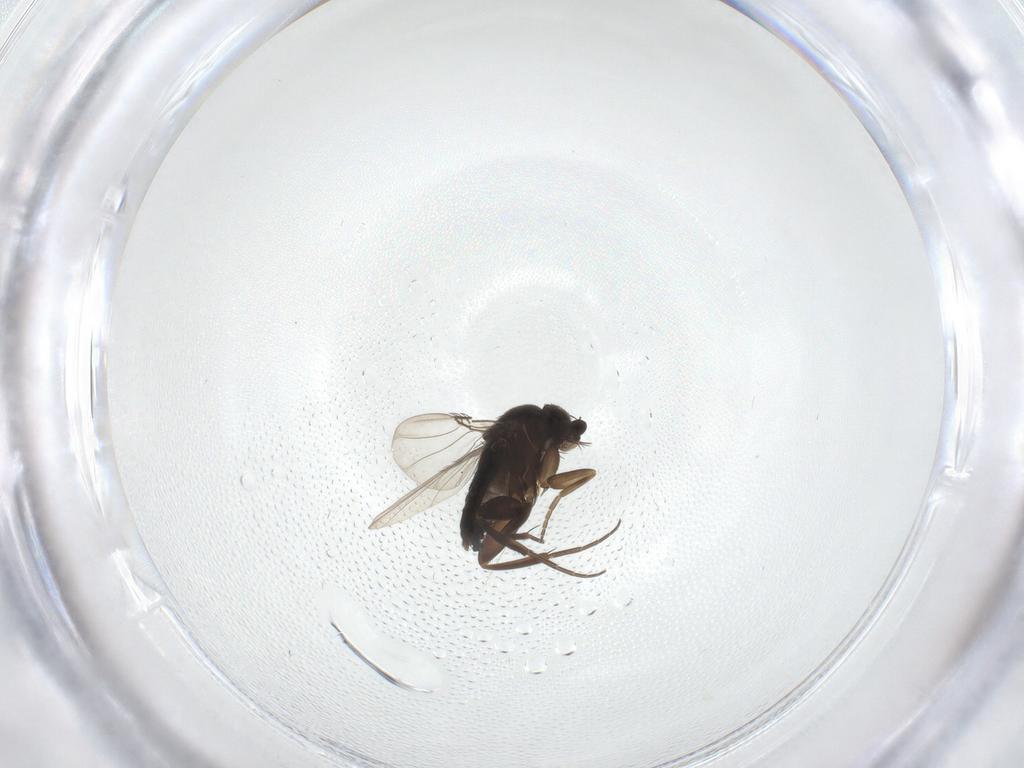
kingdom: Animalia
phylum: Arthropoda
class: Insecta
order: Diptera
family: Phoridae
